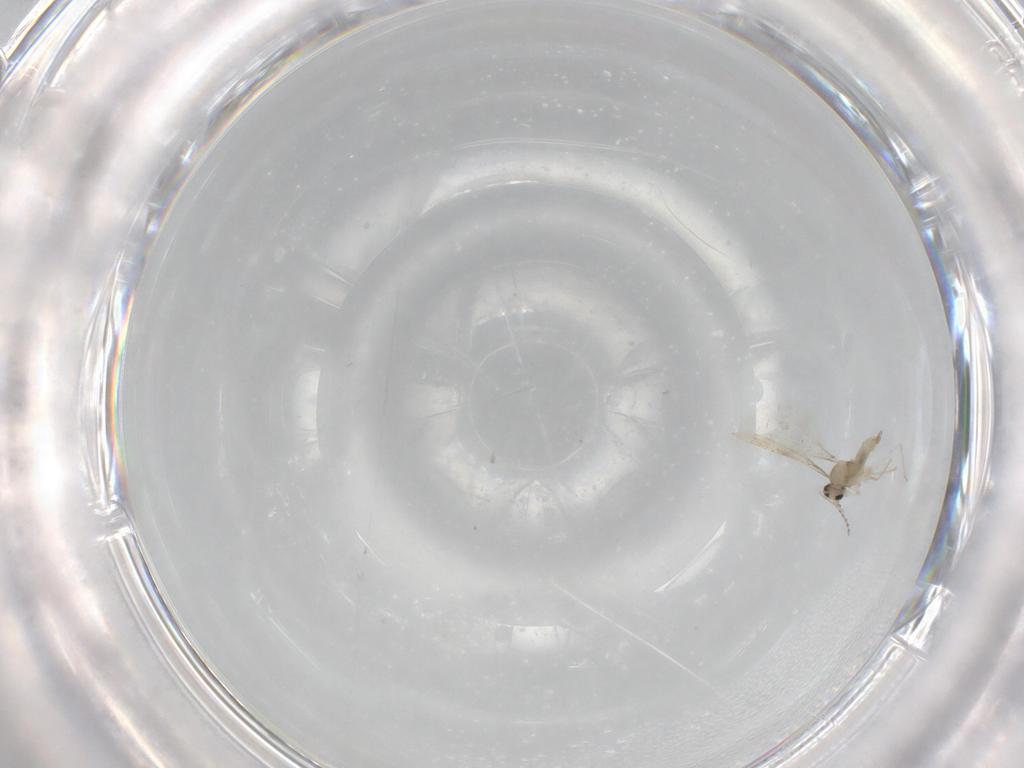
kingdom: Animalia
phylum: Arthropoda
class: Insecta
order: Diptera
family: Cecidomyiidae
